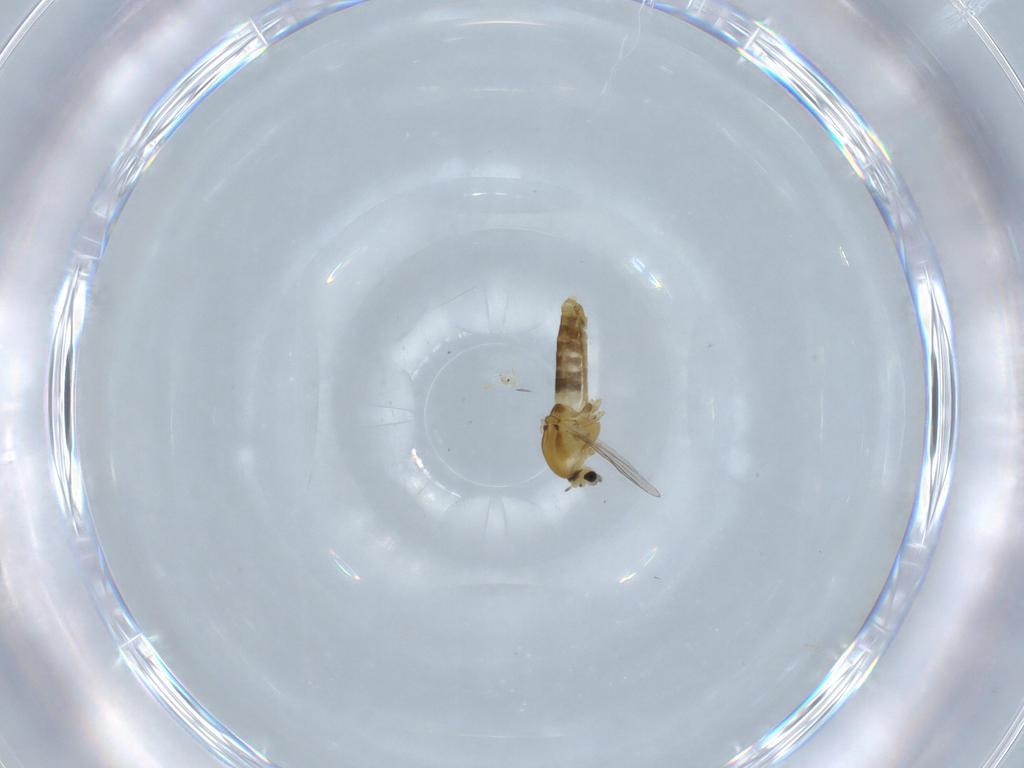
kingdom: Animalia
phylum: Arthropoda
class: Insecta
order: Diptera
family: Chironomidae
